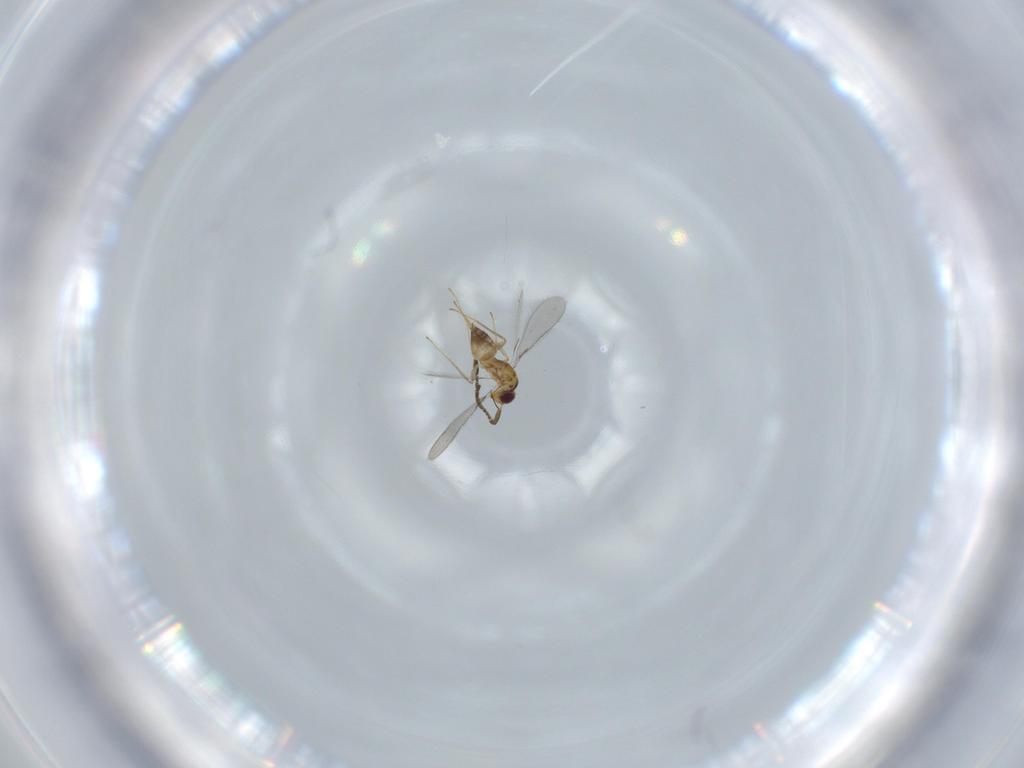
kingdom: Animalia
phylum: Arthropoda
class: Insecta
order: Hymenoptera
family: Mymaridae
